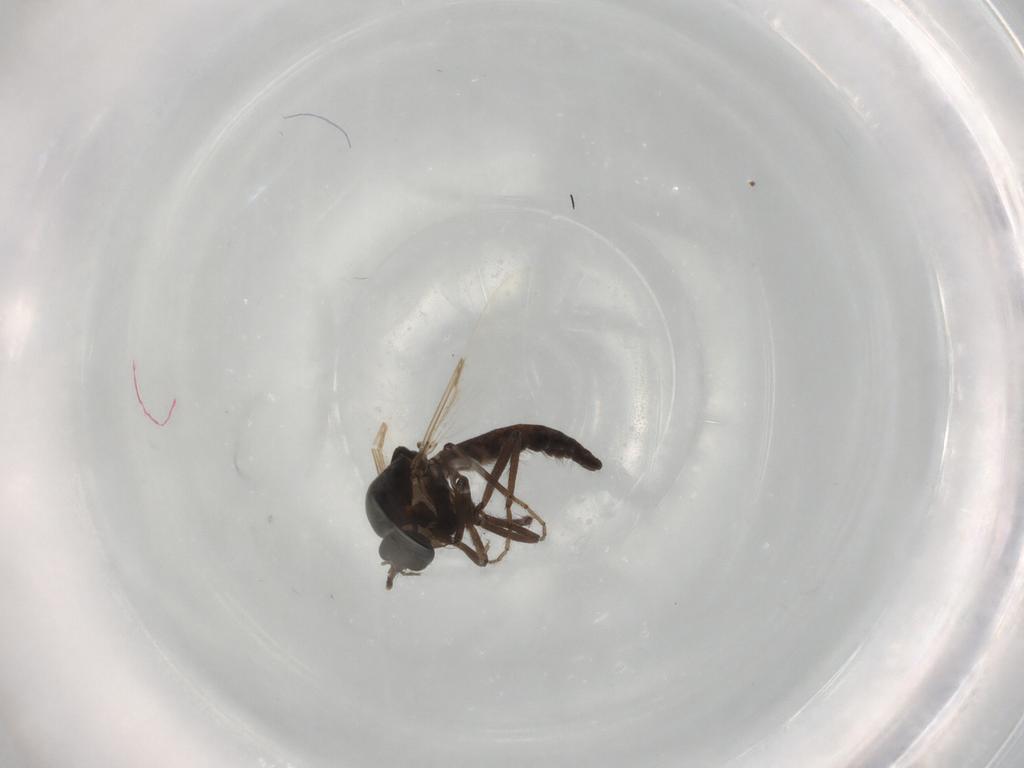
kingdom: Animalia
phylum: Arthropoda
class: Insecta
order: Diptera
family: Ceratopogonidae
